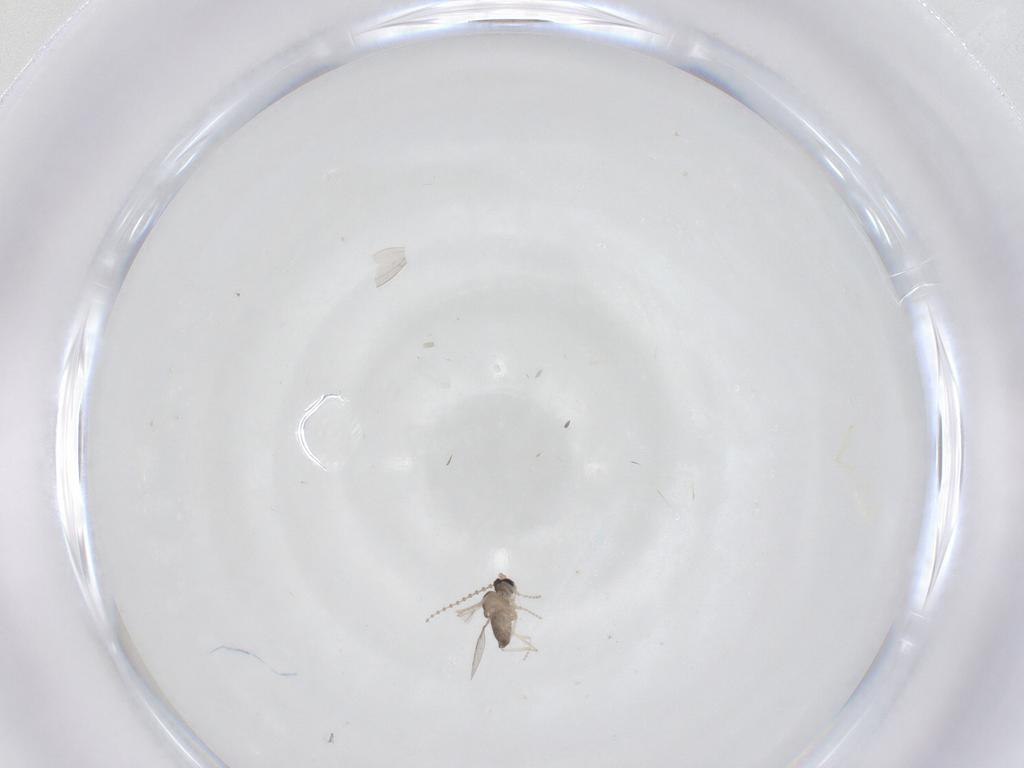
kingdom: Animalia
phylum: Arthropoda
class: Insecta
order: Diptera
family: Cecidomyiidae
